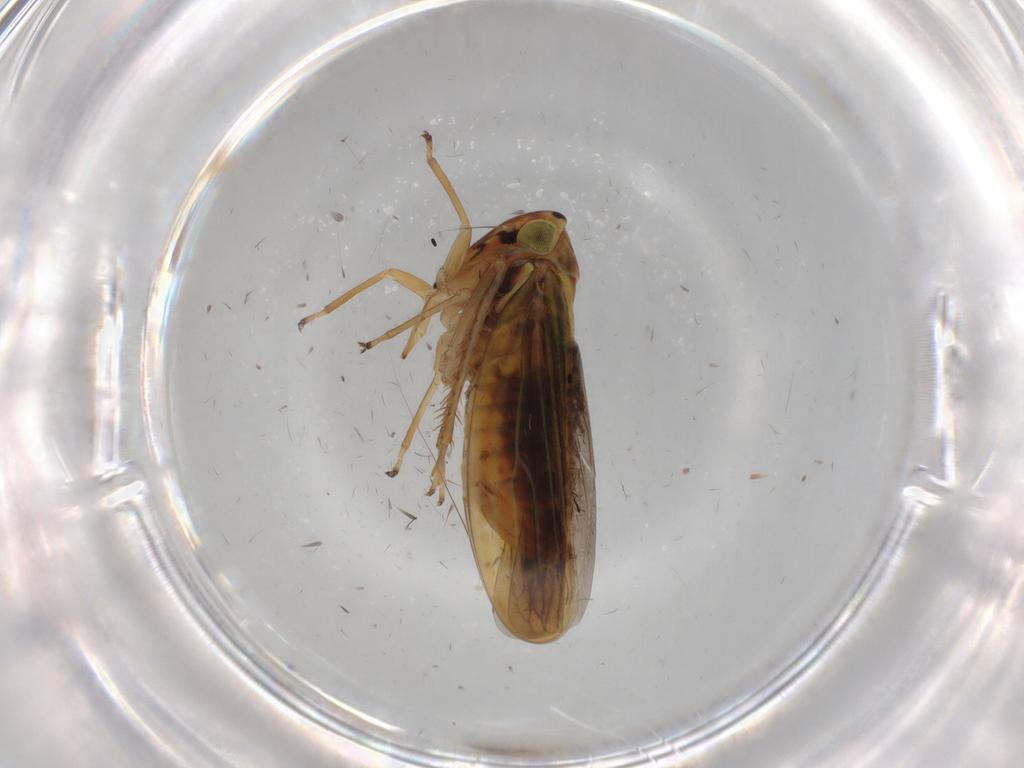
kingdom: Animalia
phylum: Arthropoda
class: Insecta
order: Hemiptera
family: Cicadellidae
